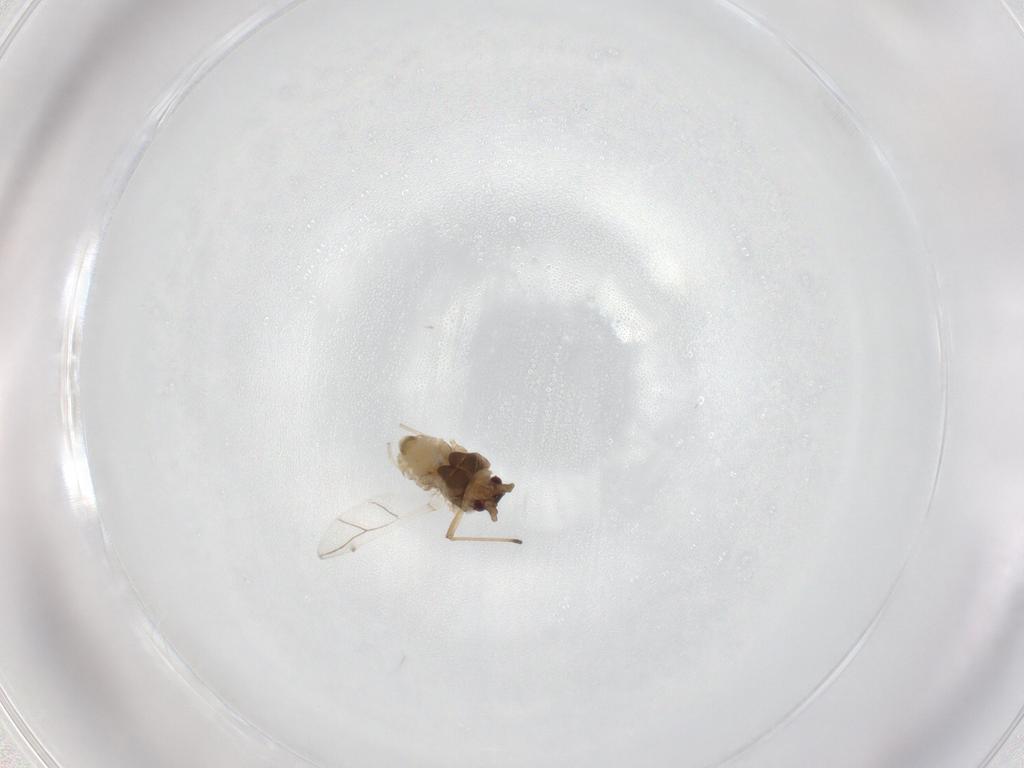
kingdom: Animalia
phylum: Arthropoda
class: Insecta
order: Hemiptera
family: Aphididae
